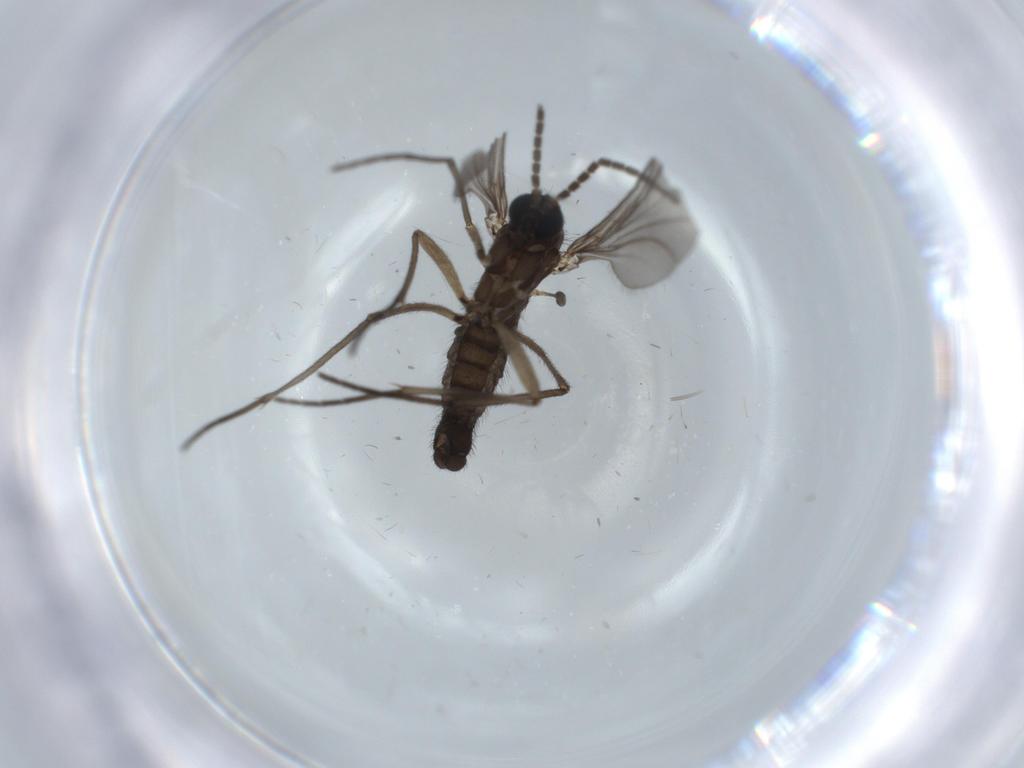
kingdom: Animalia
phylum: Arthropoda
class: Insecta
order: Diptera
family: Sciaridae
